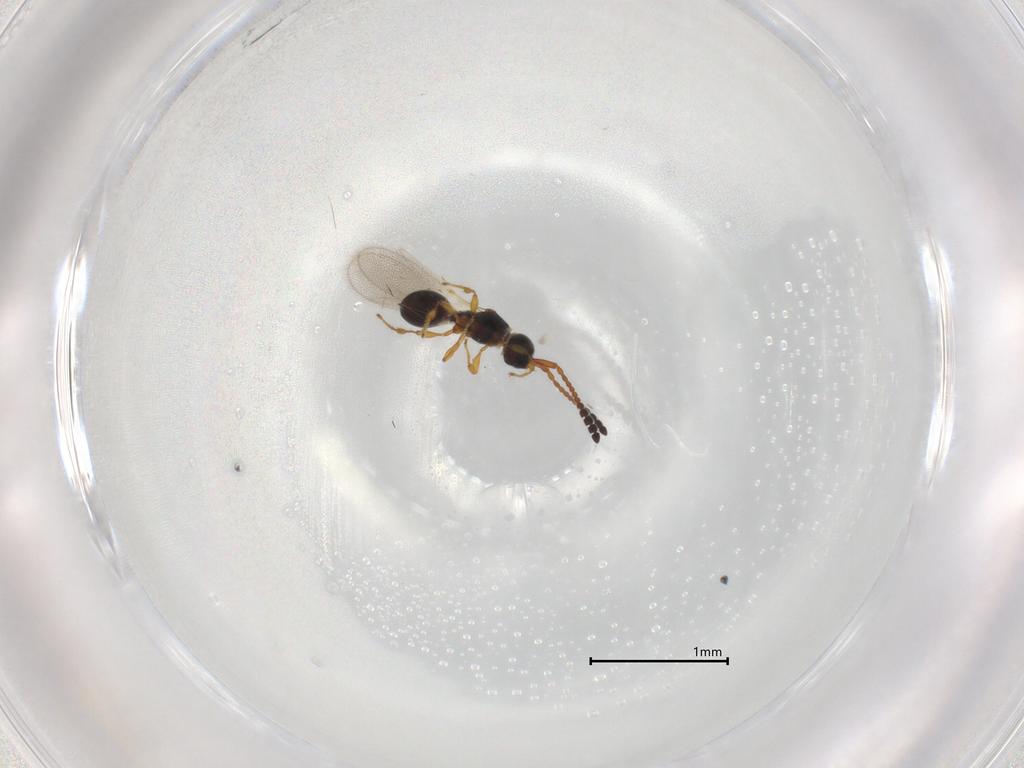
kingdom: Animalia
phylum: Arthropoda
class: Insecta
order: Hymenoptera
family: Diapriidae
